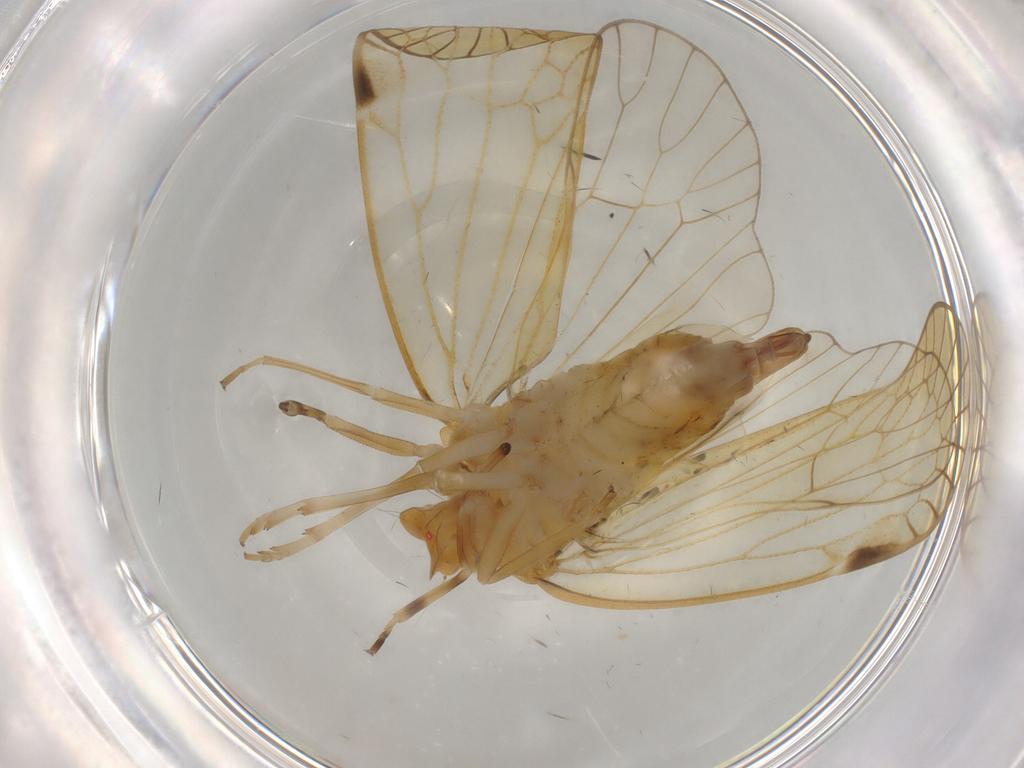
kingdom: Animalia
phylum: Arthropoda
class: Insecta
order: Hemiptera
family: Cixiidae
